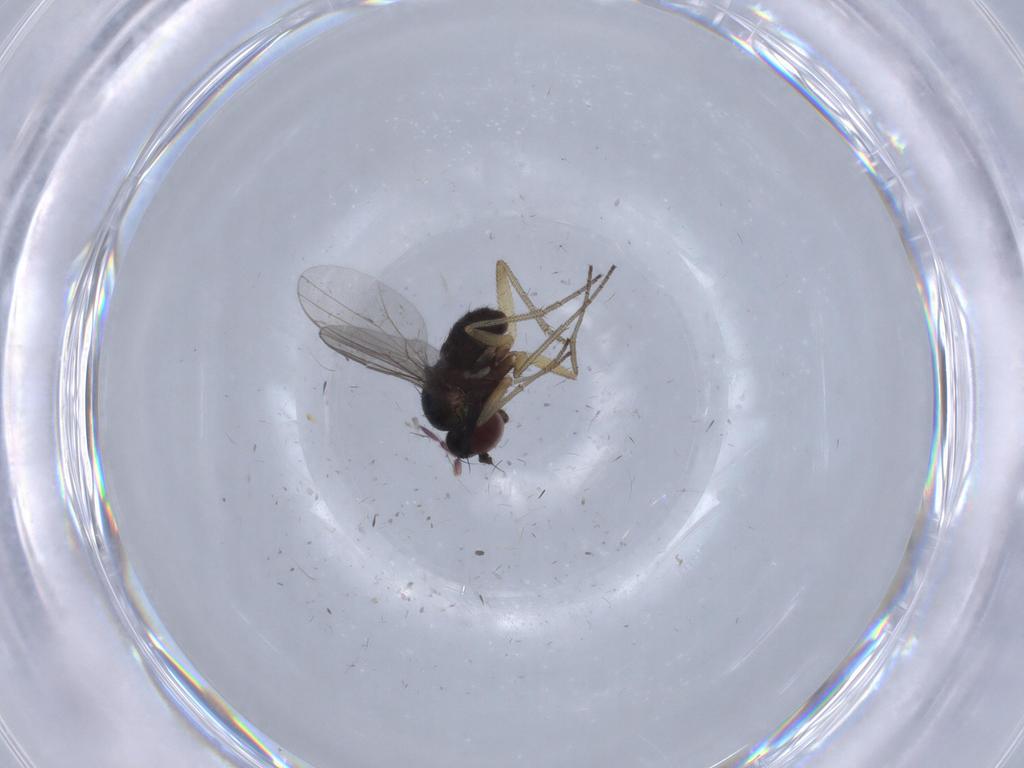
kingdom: Animalia
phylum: Arthropoda
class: Insecta
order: Diptera
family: Dolichopodidae
